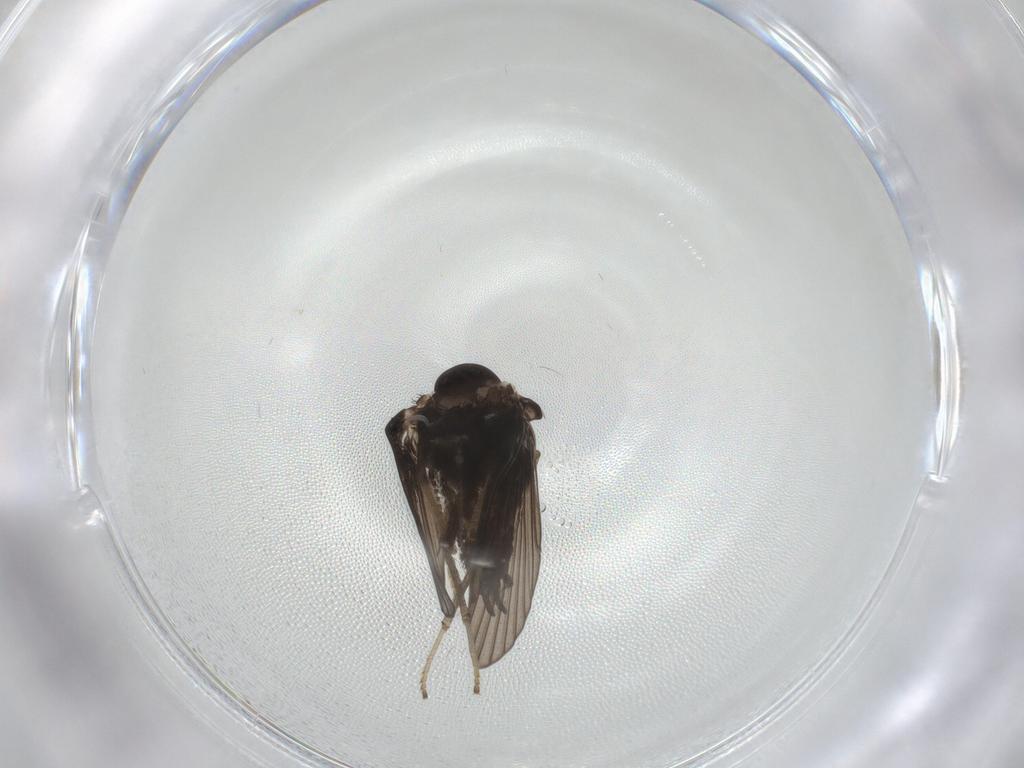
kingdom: Animalia
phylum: Arthropoda
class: Insecta
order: Diptera
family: Psychodidae
